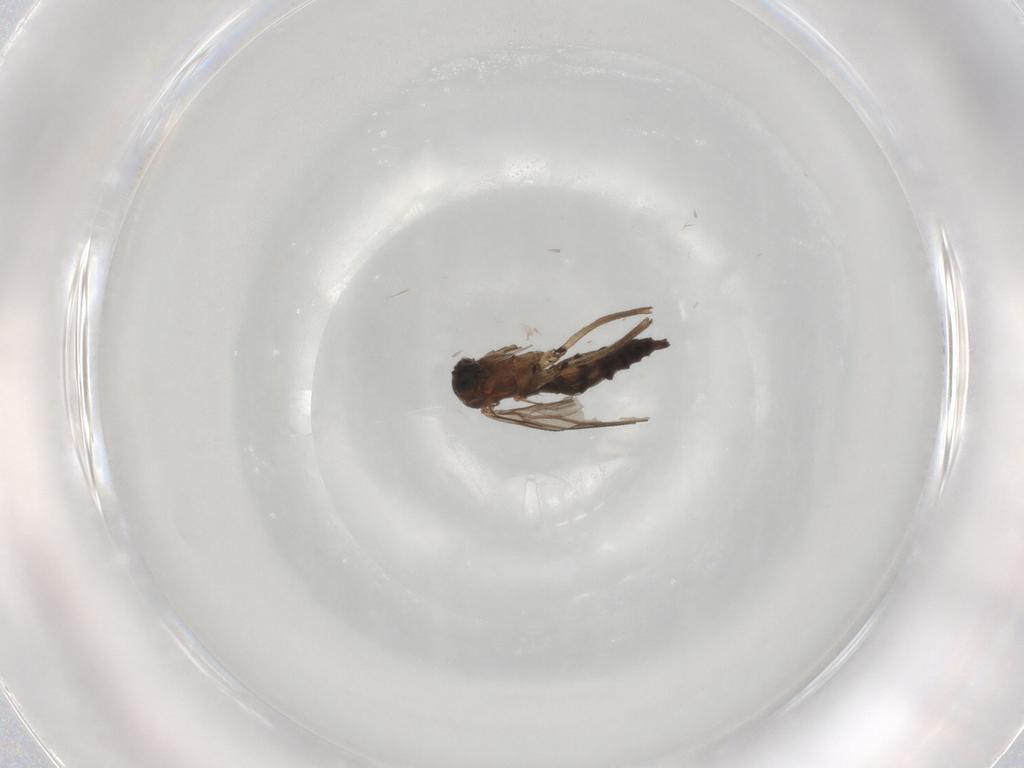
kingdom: Animalia
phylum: Arthropoda
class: Insecta
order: Diptera
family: Sciaridae
